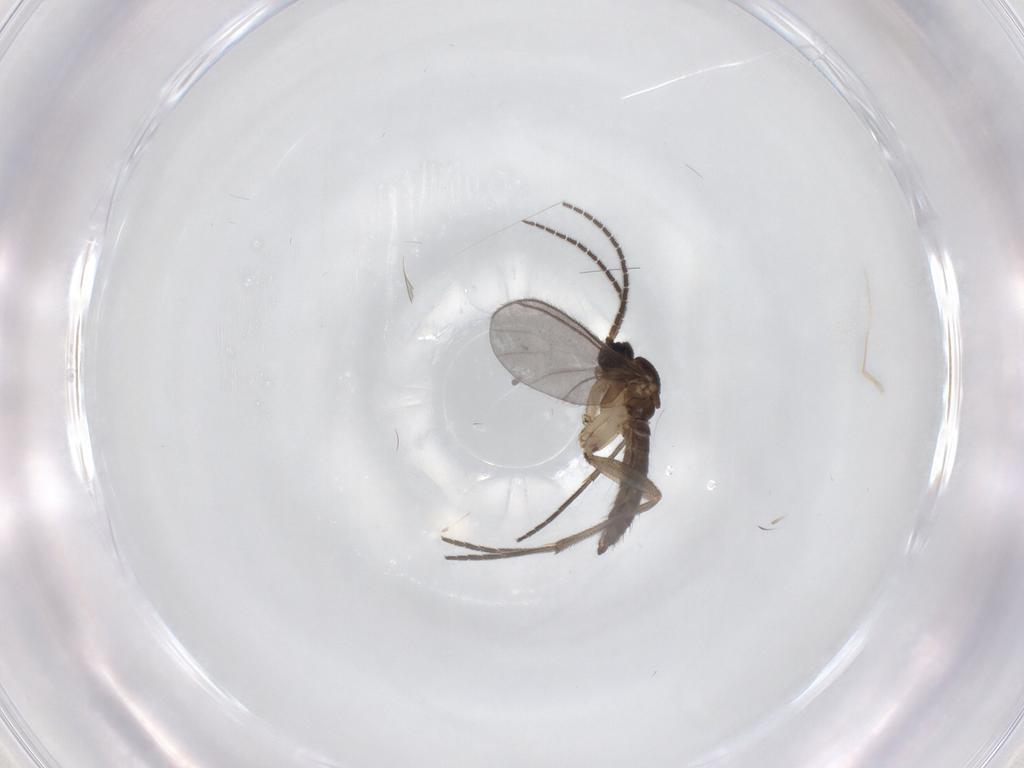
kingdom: Animalia
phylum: Arthropoda
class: Insecta
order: Diptera
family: Sciaridae
